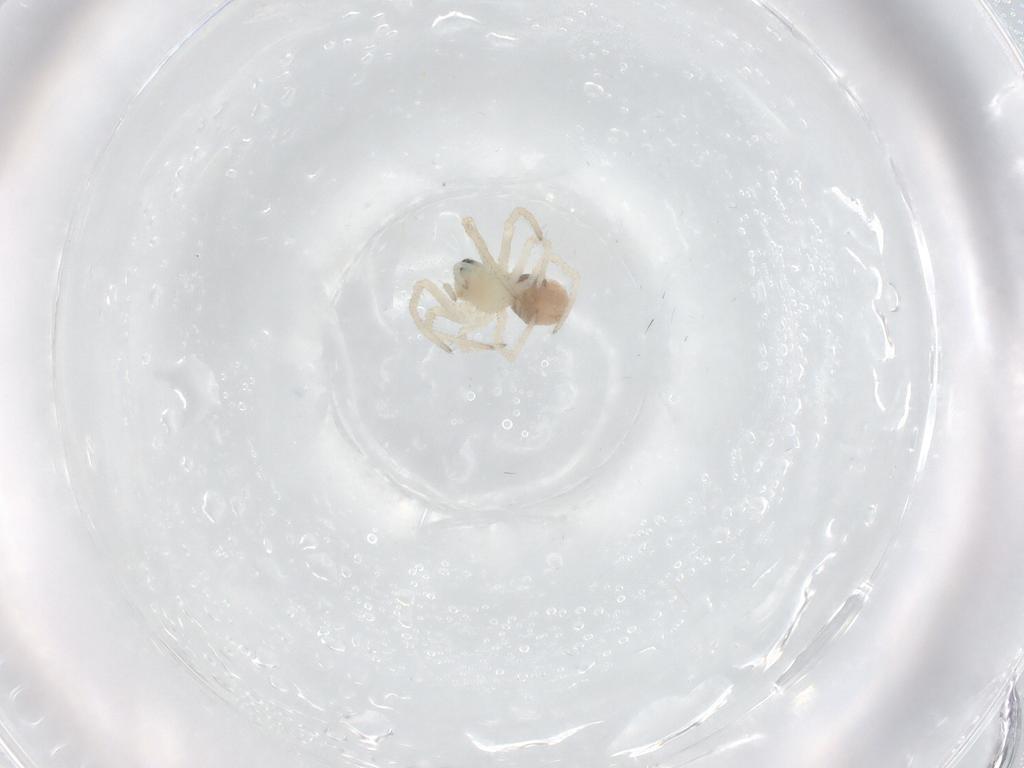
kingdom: Animalia
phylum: Arthropoda
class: Arachnida
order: Araneae
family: Linyphiidae
